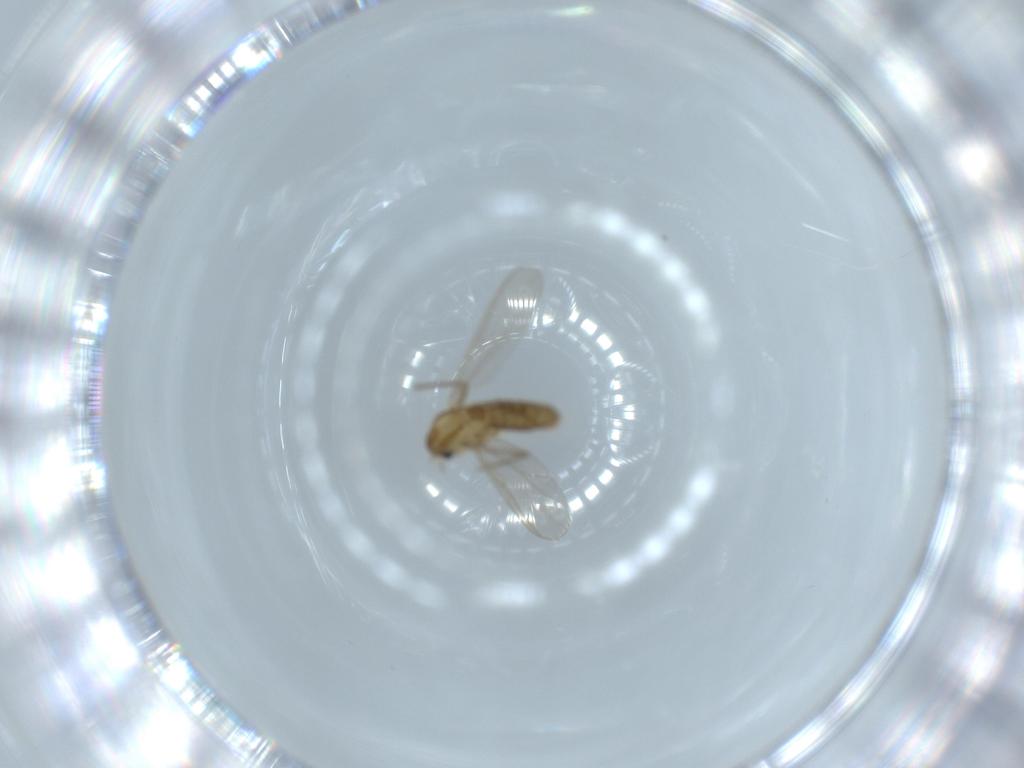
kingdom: Animalia
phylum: Arthropoda
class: Insecta
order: Diptera
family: Chironomidae
